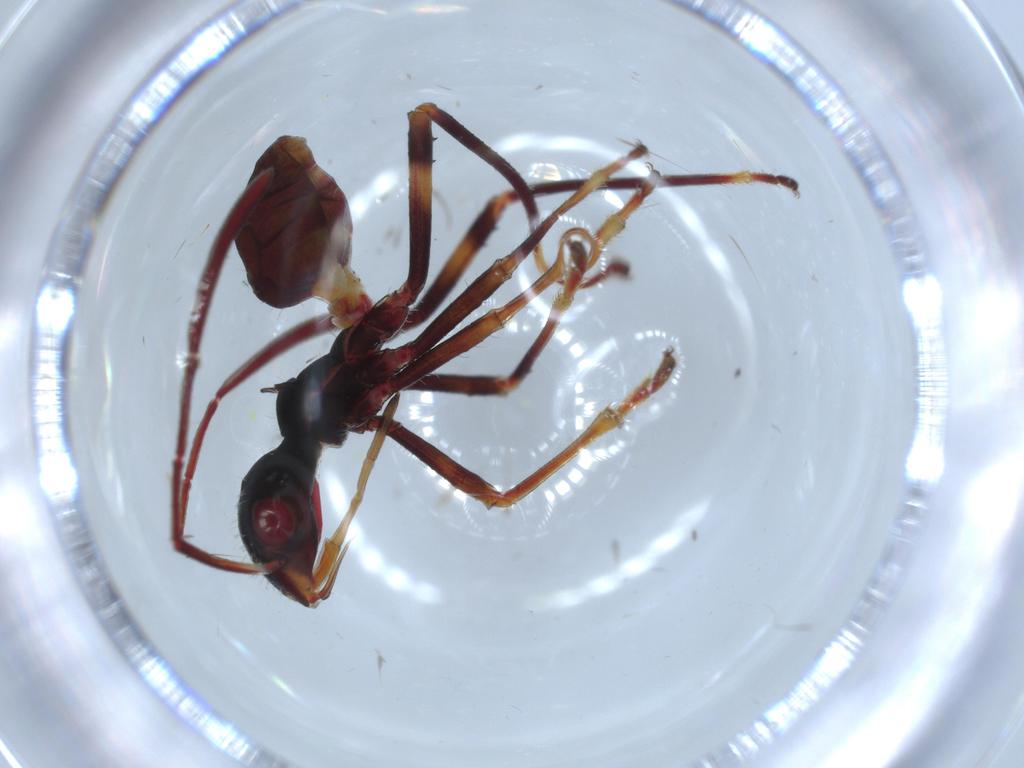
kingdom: Animalia
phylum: Arthropoda
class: Insecta
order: Hemiptera
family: Alydidae
